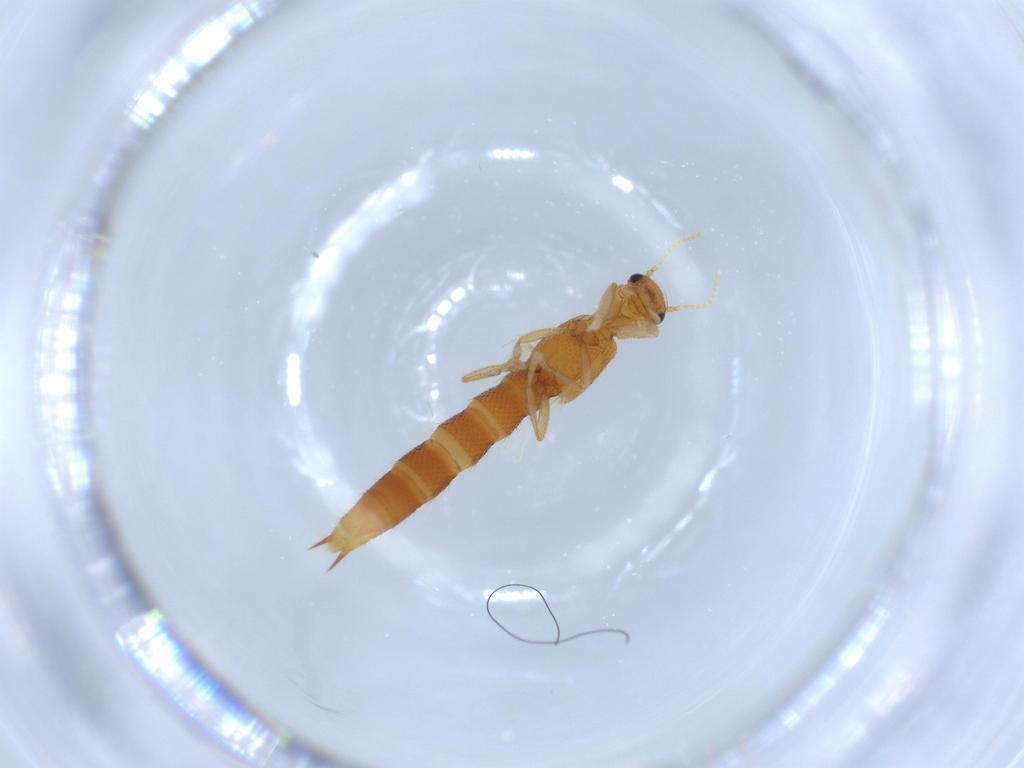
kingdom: Animalia
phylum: Arthropoda
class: Insecta
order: Coleoptera
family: Staphylinidae
